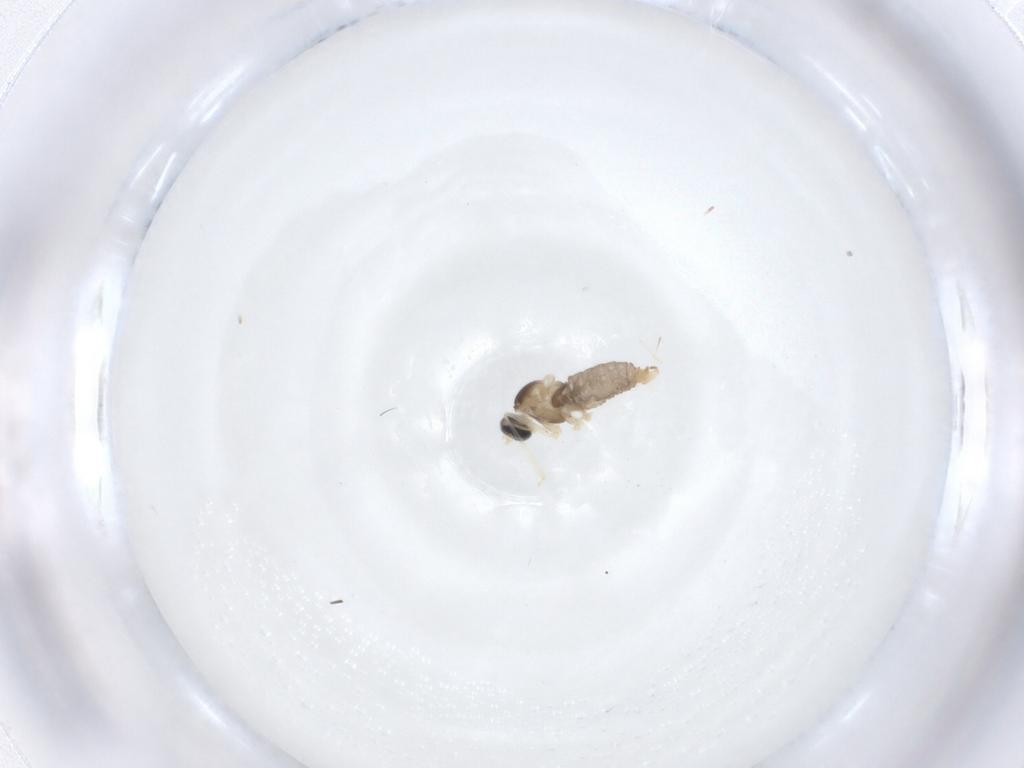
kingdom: Animalia
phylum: Arthropoda
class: Insecta
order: Diptera
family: Cecidomyiidae
